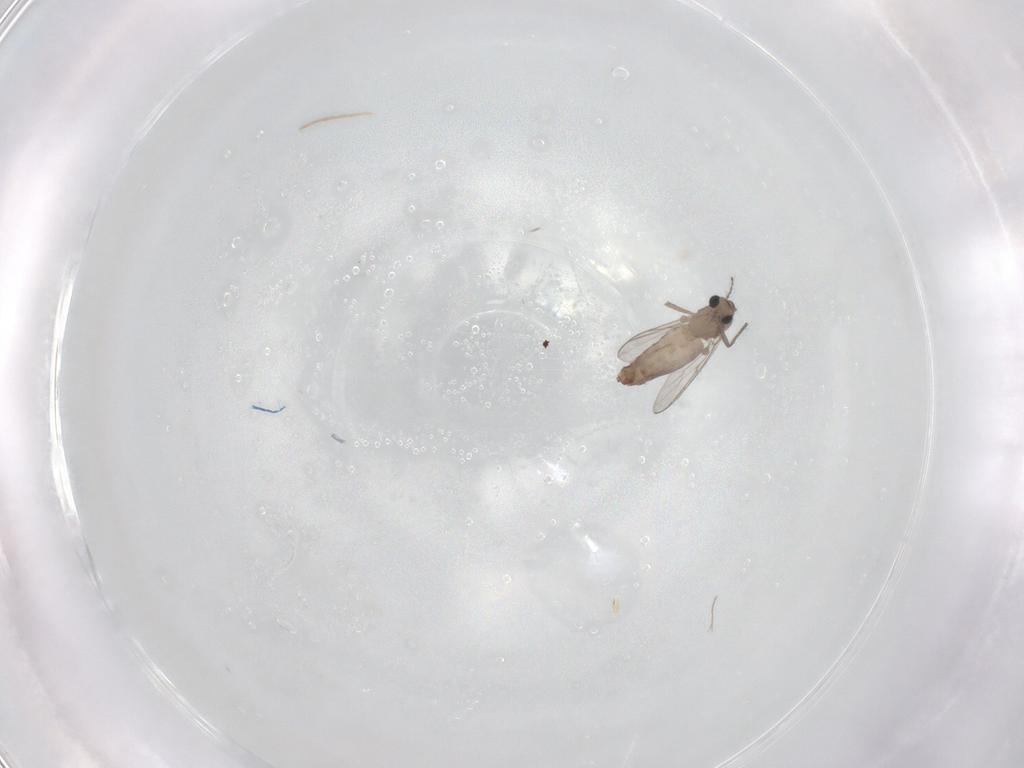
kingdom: Animalia
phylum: Arthropoda
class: Insecta
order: Diptera
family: Chironomidae
